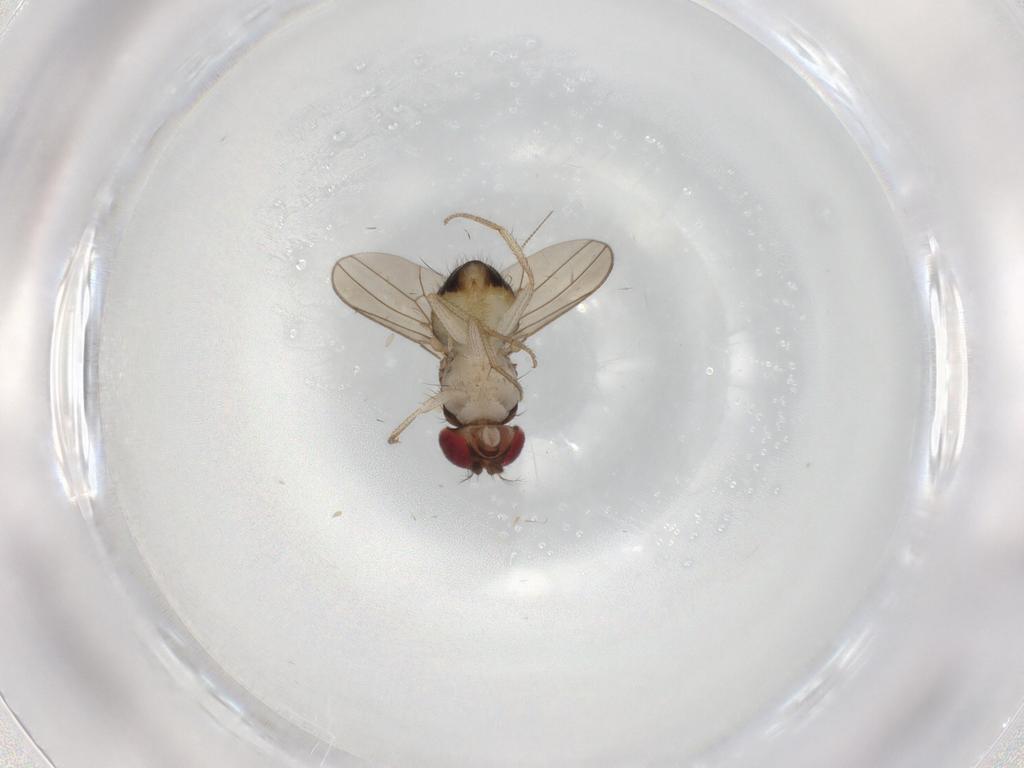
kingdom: Animalia
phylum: Arthropoda
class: Insecta
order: Diptera
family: Drosophilidae
